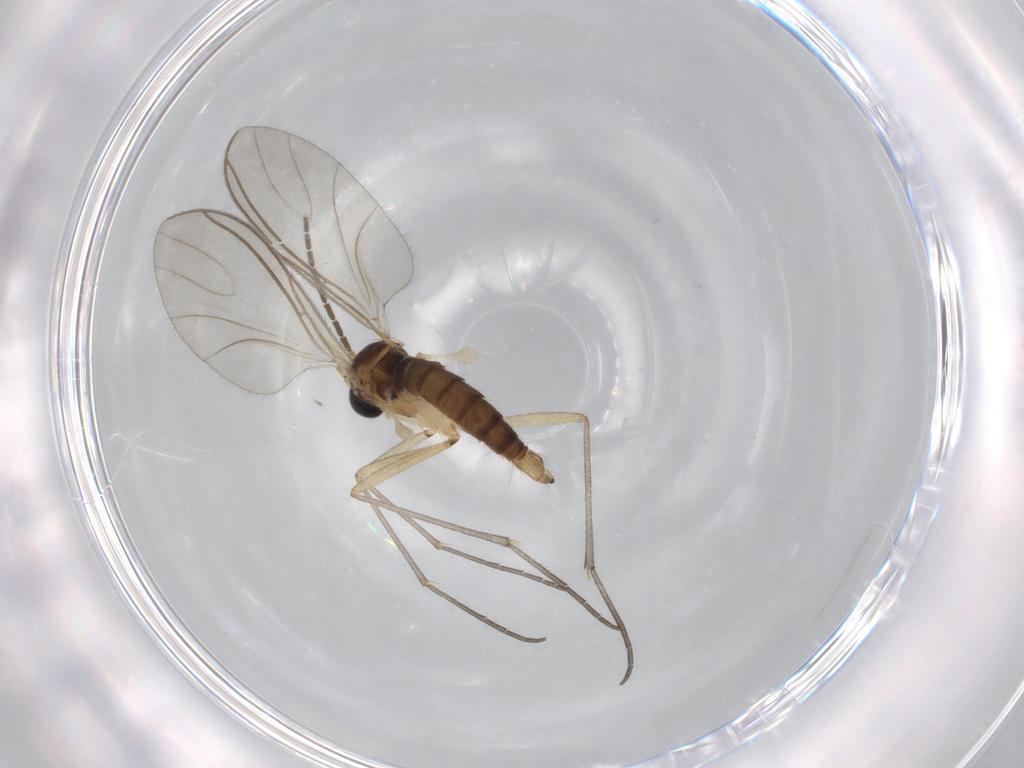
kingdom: Animalia
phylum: Arthropoda
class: Insecta
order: Diptera
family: Sciaridae
